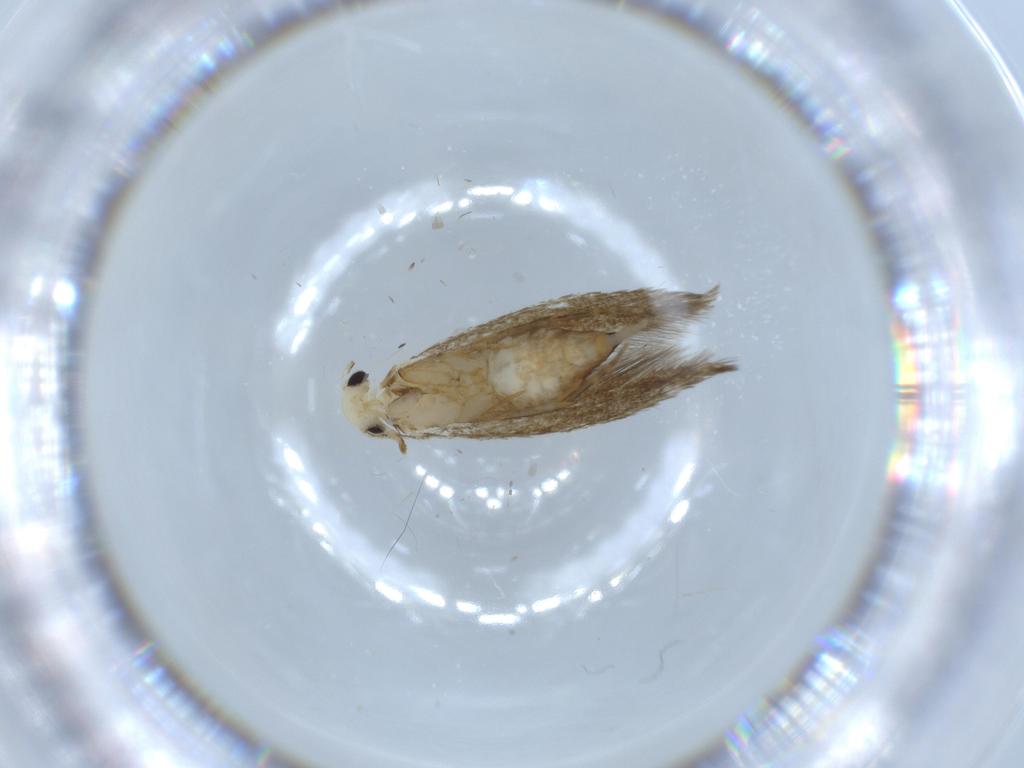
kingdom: Animalia
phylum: Arthropoda
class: Insecta
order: Lepidoptera
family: Tineidae
